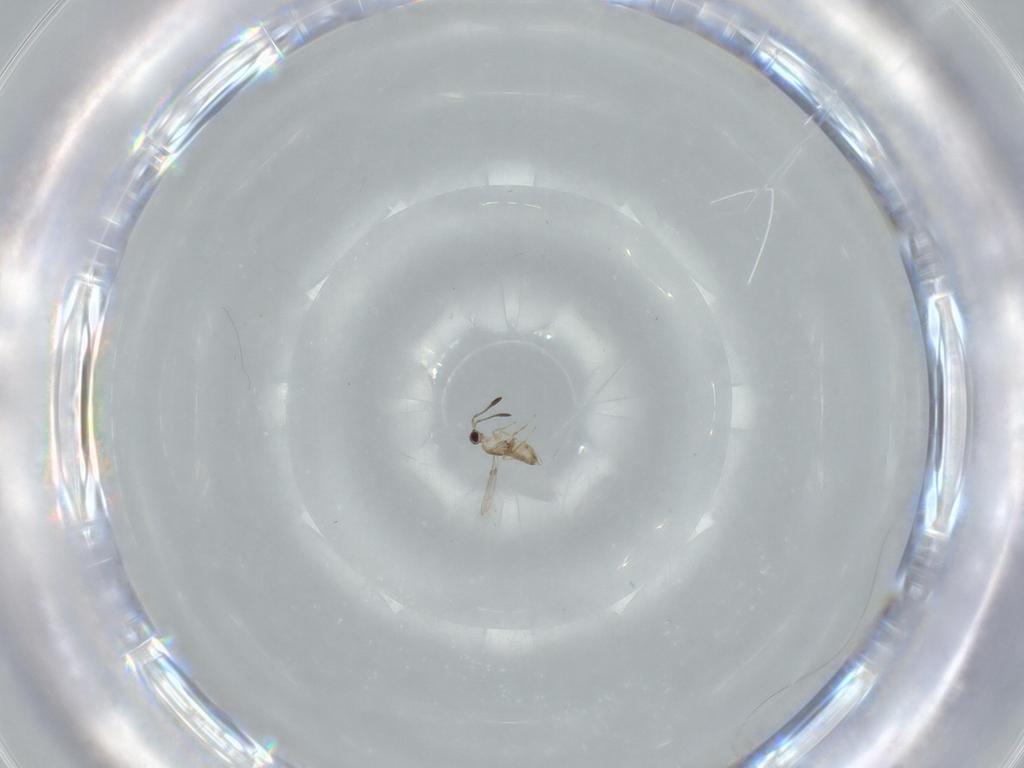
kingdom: Animalia
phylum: Arthropoda
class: Insecta
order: Hymenoptera
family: Mymaridae
